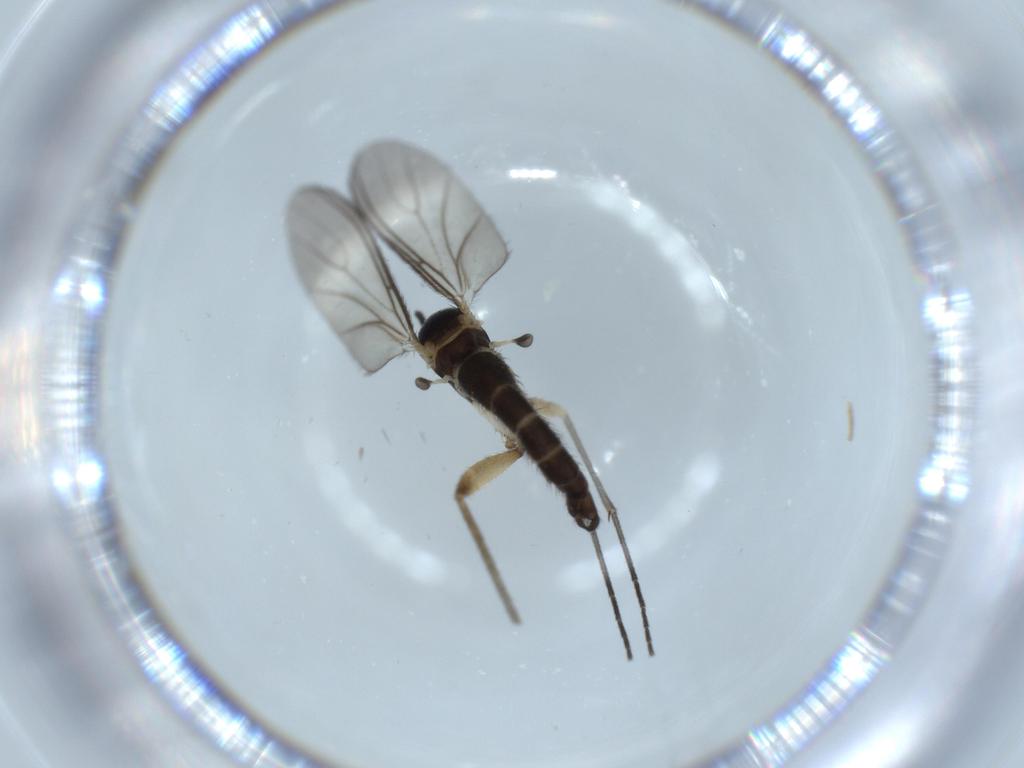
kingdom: Animalia
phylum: Arthropoda
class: Insecta
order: Diptera
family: Sciaridae
